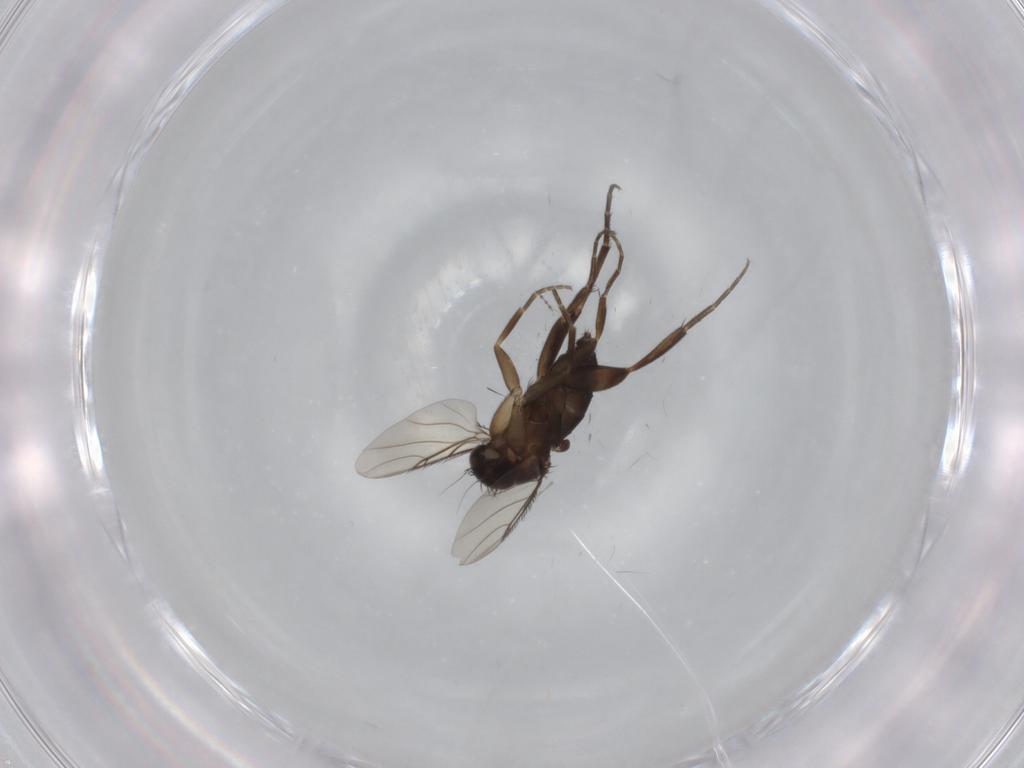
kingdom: Animalia
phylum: Arthropoda
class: Insecta
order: Diptera
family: Phoridae
